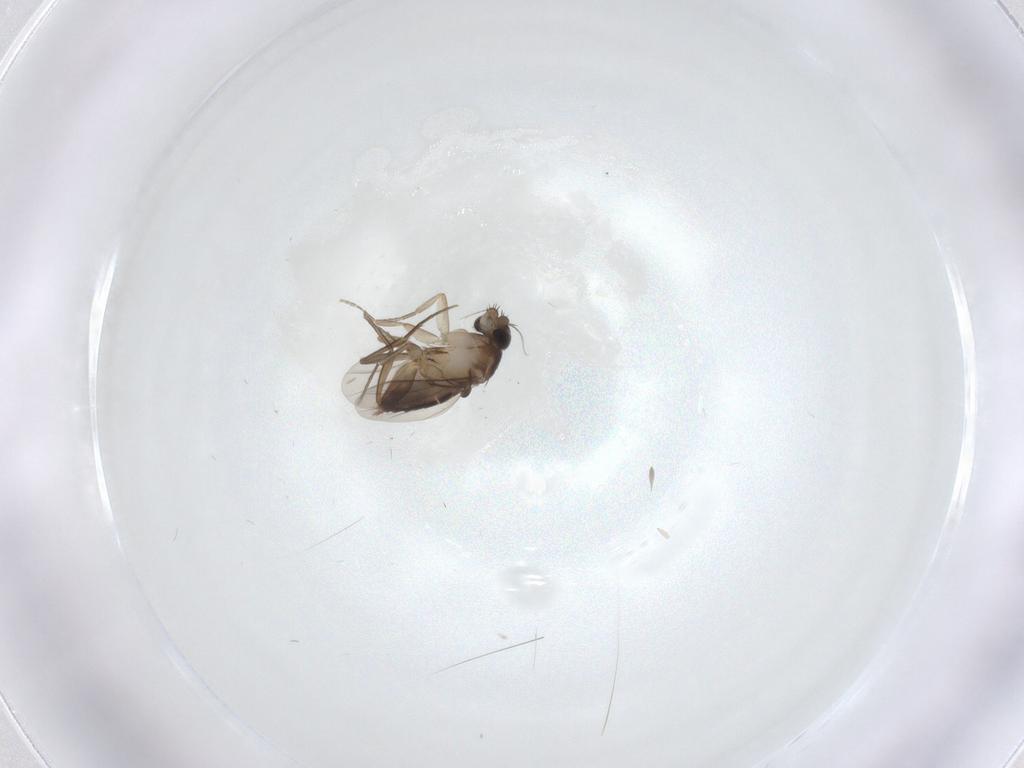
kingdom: Animalia
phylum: Arthropoda
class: Insecta
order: Diptera
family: Phoridae
